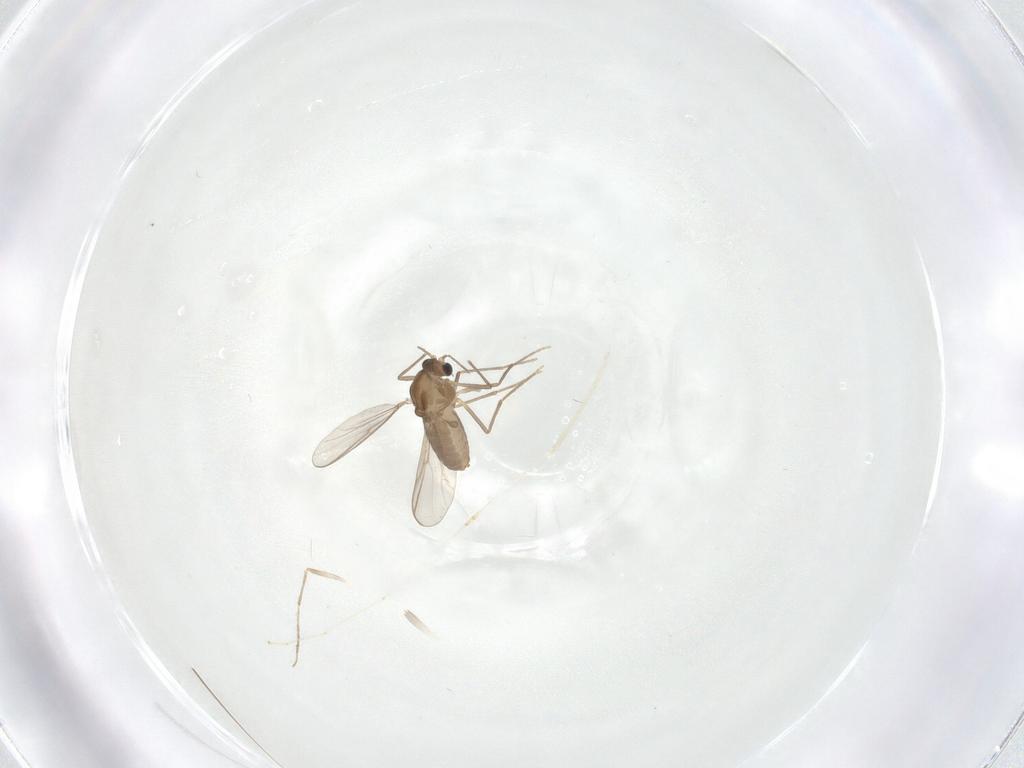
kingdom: Animalia
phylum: Arthropoda
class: Insecta
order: Diptera
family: Chironomidae
